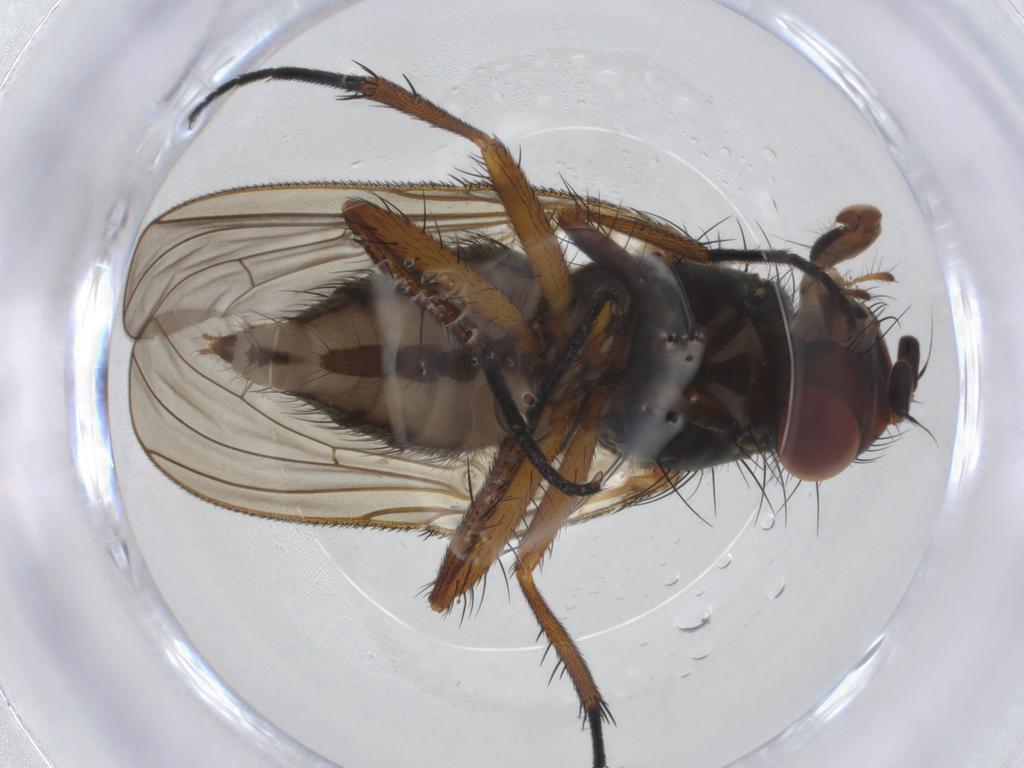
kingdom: Animalia
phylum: Arthropoda
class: Insecta
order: Diptera
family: Anthomyiidae
